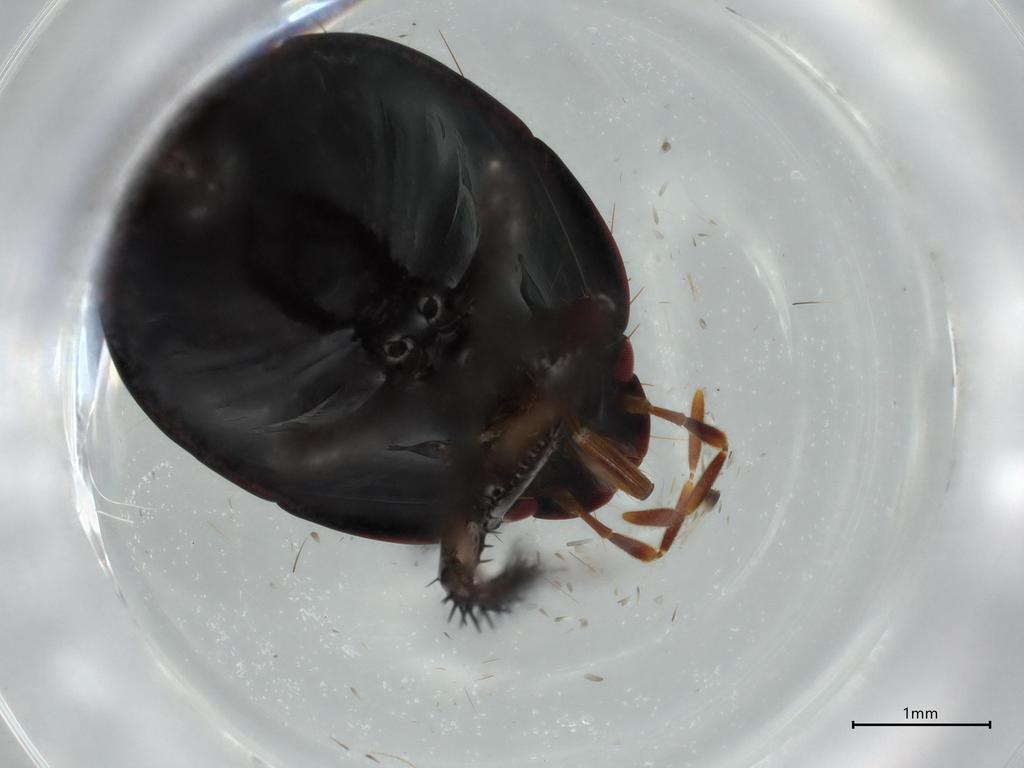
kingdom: Animalia
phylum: Arthropoda
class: Insecta
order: Hemiptera
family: Cydnidae
